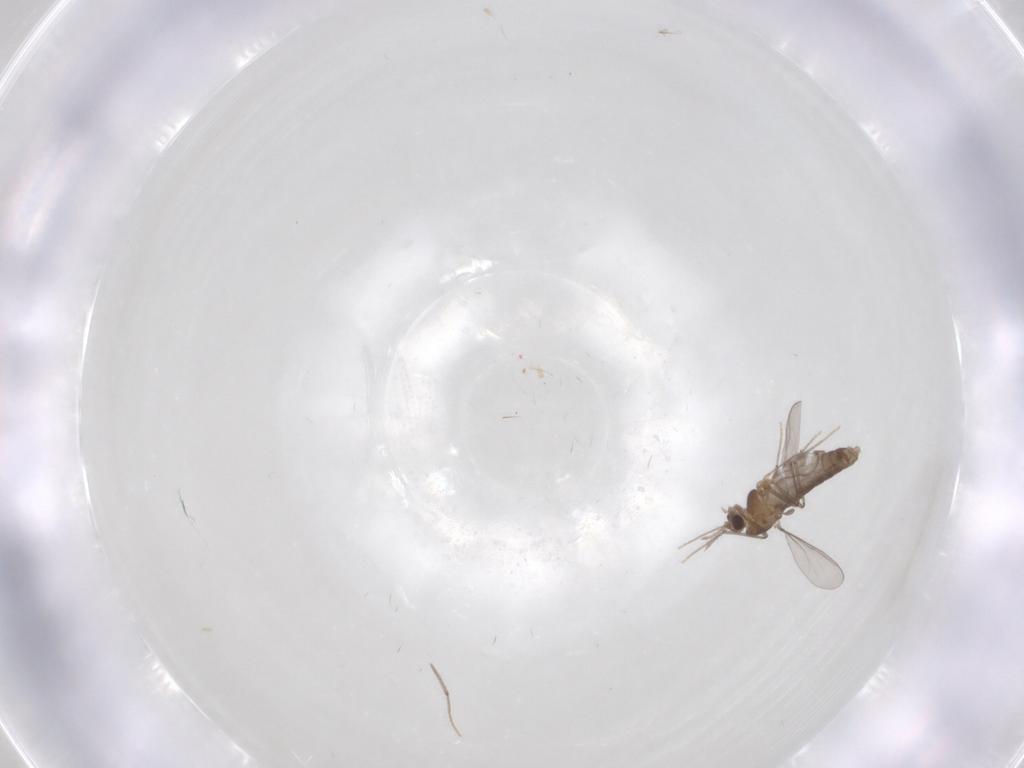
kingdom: Animalia
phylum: Arthropoda
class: Insecta
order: Diptera
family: Chironomidae
